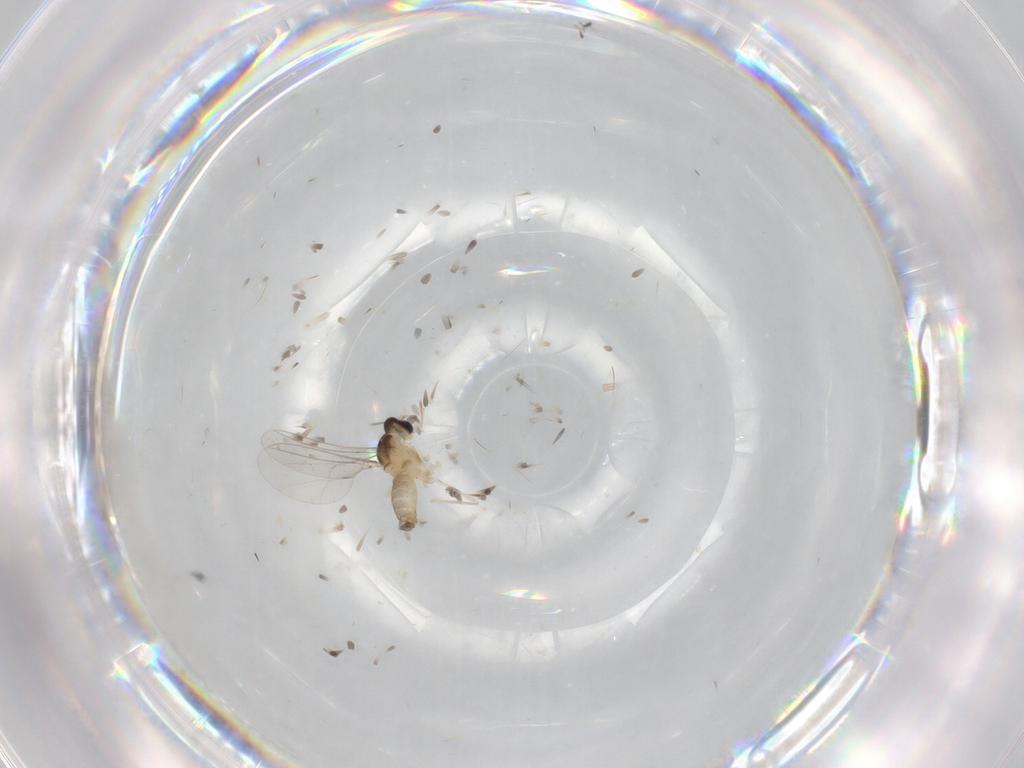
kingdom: Animalia
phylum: Arthropoda
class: Insecta
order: Diptera
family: Cecidomyiidae
